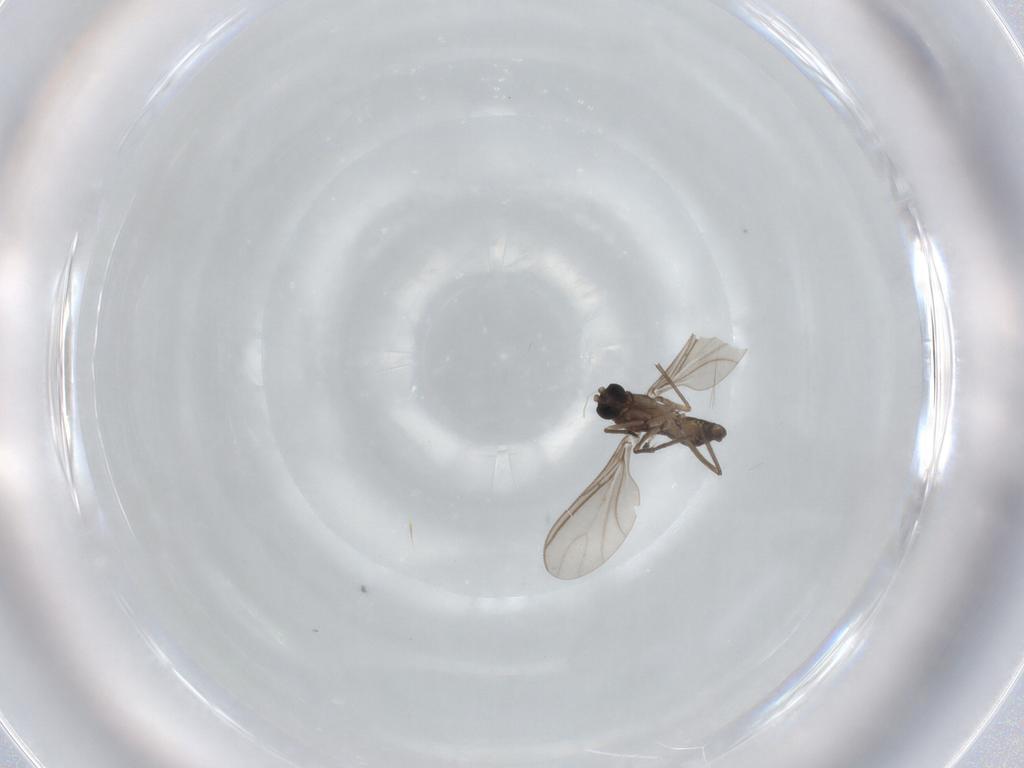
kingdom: Animalia
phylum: Arthropoda
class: Insecta
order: Diptera
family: Sciaridae
